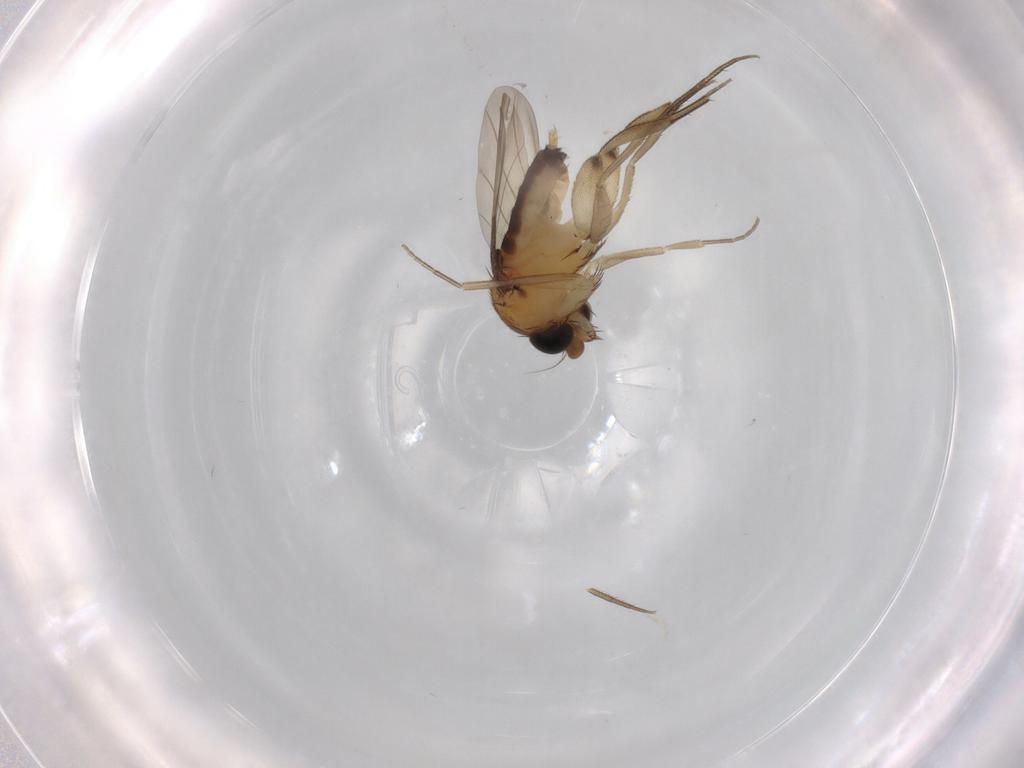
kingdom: Animalia
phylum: Arthropoda
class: Insecta
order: Diptera
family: Phoridae
